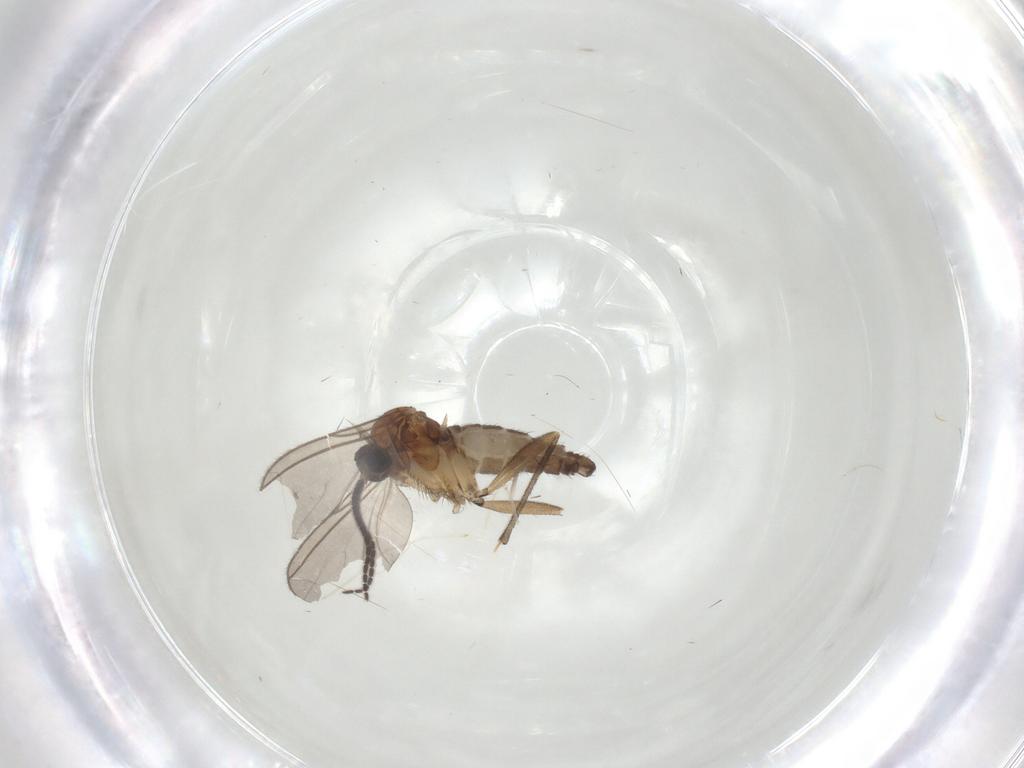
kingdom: Animalia
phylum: Arthropoda
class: Insecta
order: Diptera
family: Sciaridae
